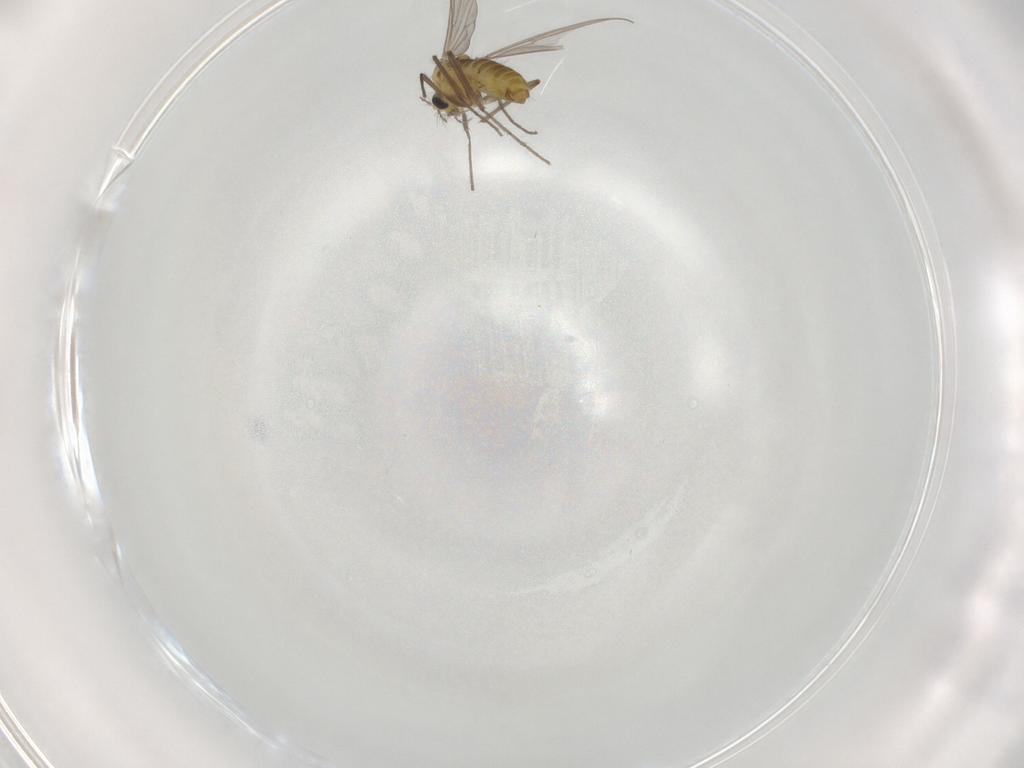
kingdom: Animalia
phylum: Arthropoda
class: Insecta
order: Diptera
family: Chironomidae
